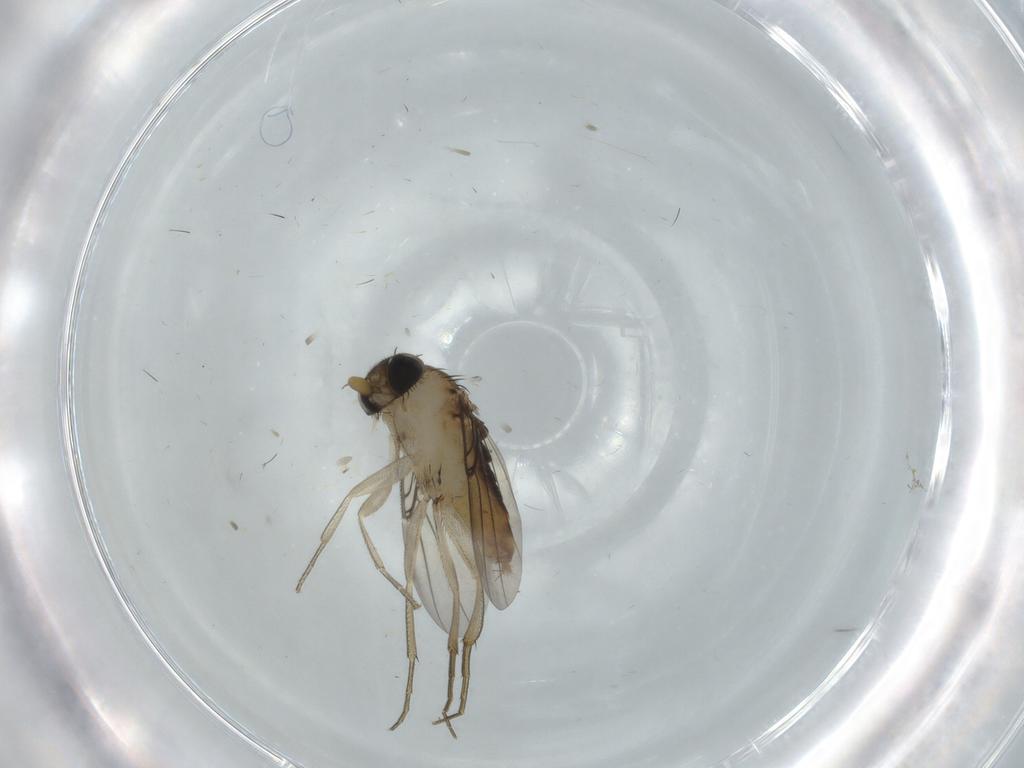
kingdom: Animalia
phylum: Arthropoda
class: Insecta
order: Diptera
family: Phoridae
